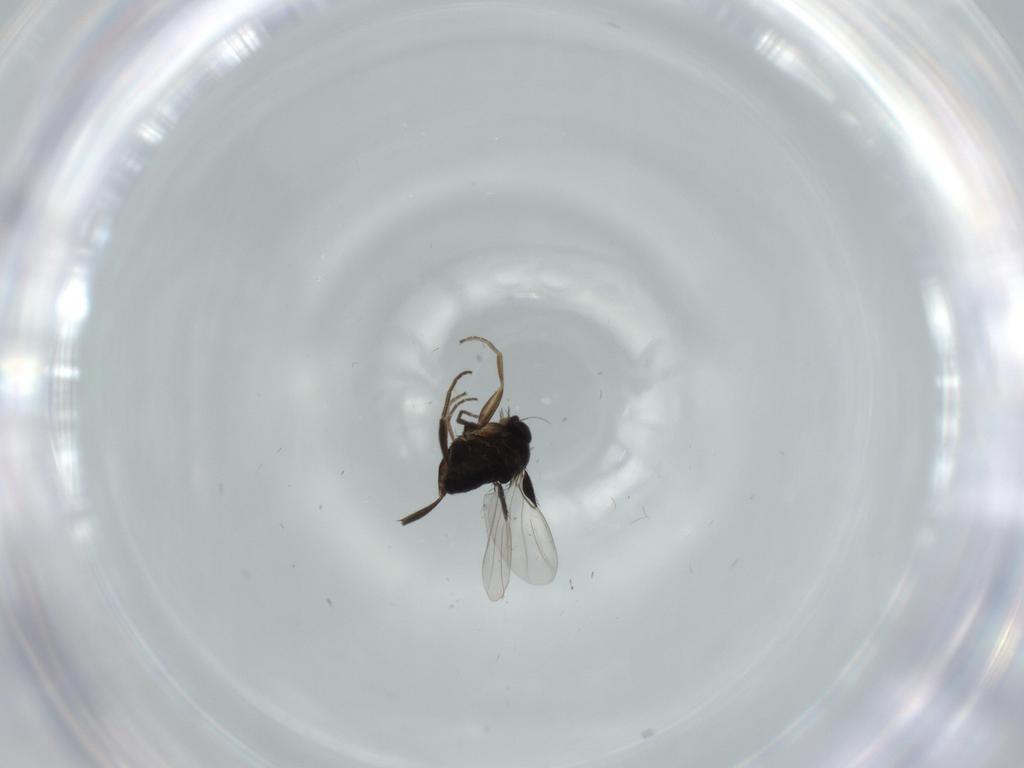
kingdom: Animalia
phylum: Arthropoda
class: Insecta
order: Diptera
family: Phoridae
